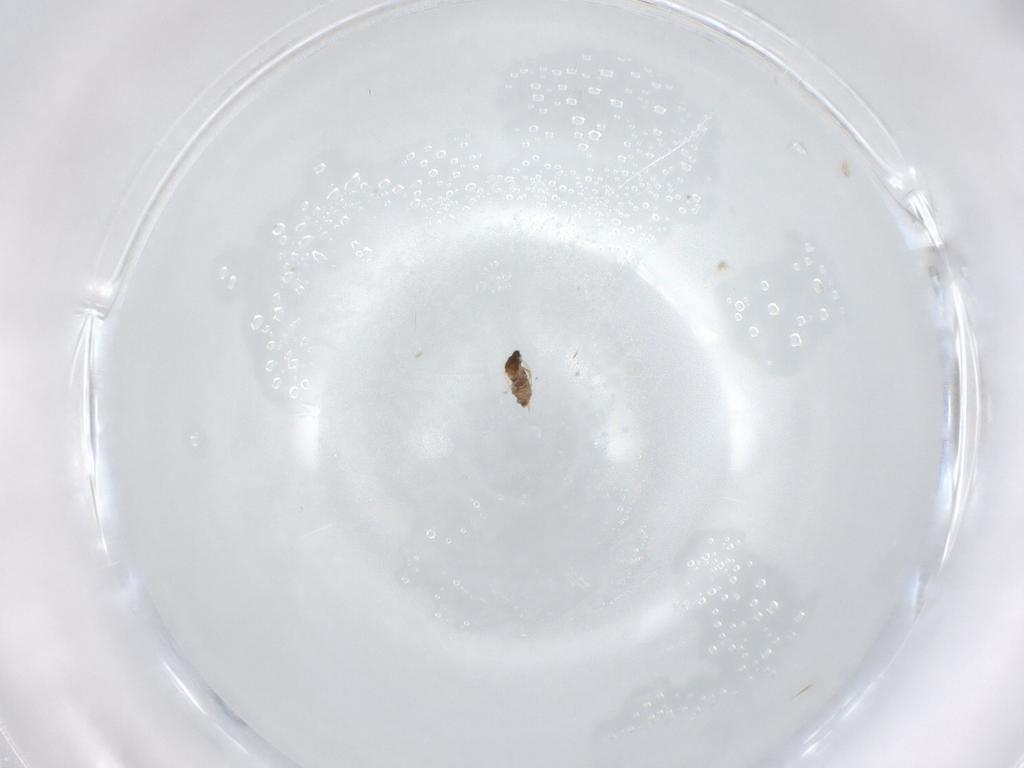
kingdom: Animalia
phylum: Arthropoda
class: Insecta
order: Diptera
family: Cecidomyiidae
